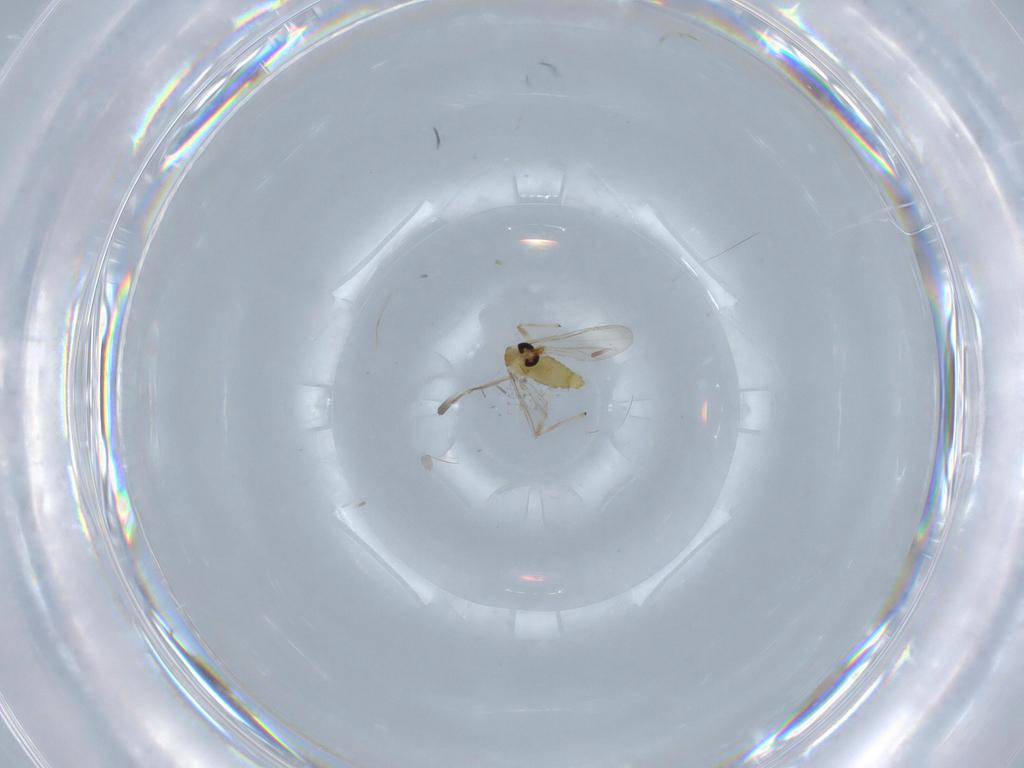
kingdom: Animalia
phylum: Arthropoda
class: Insecta
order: Diptera
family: Chironomidae
